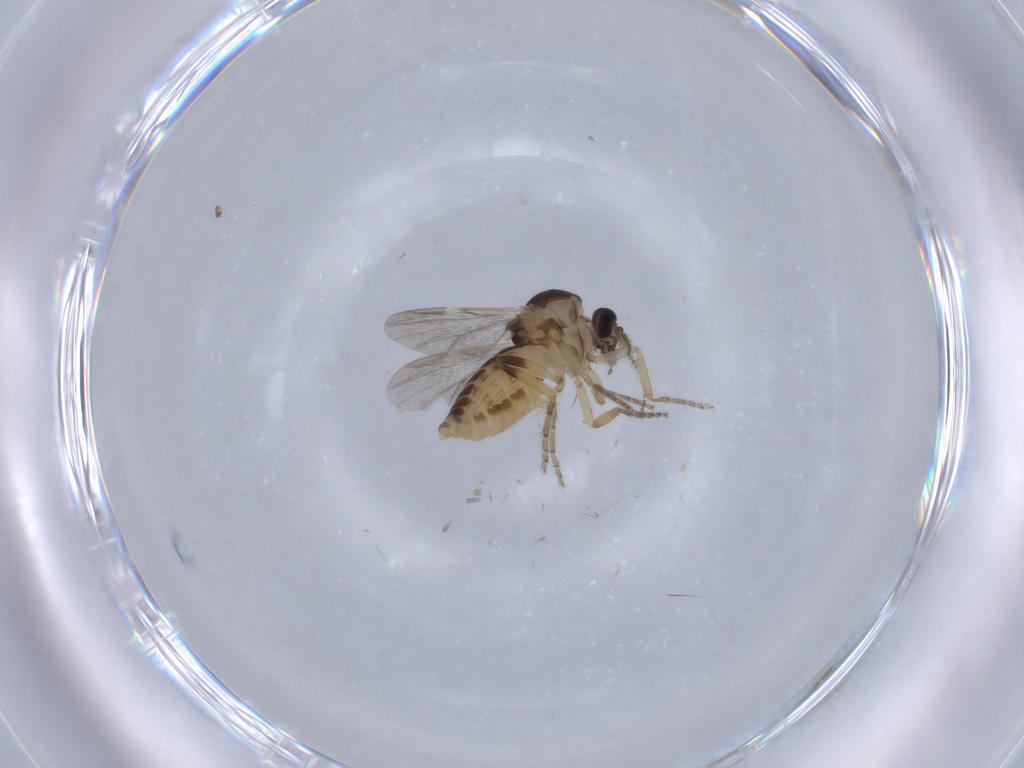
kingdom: Animalia
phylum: Arthropoda
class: Insecta
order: Diptera
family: Ceratopogonidae
